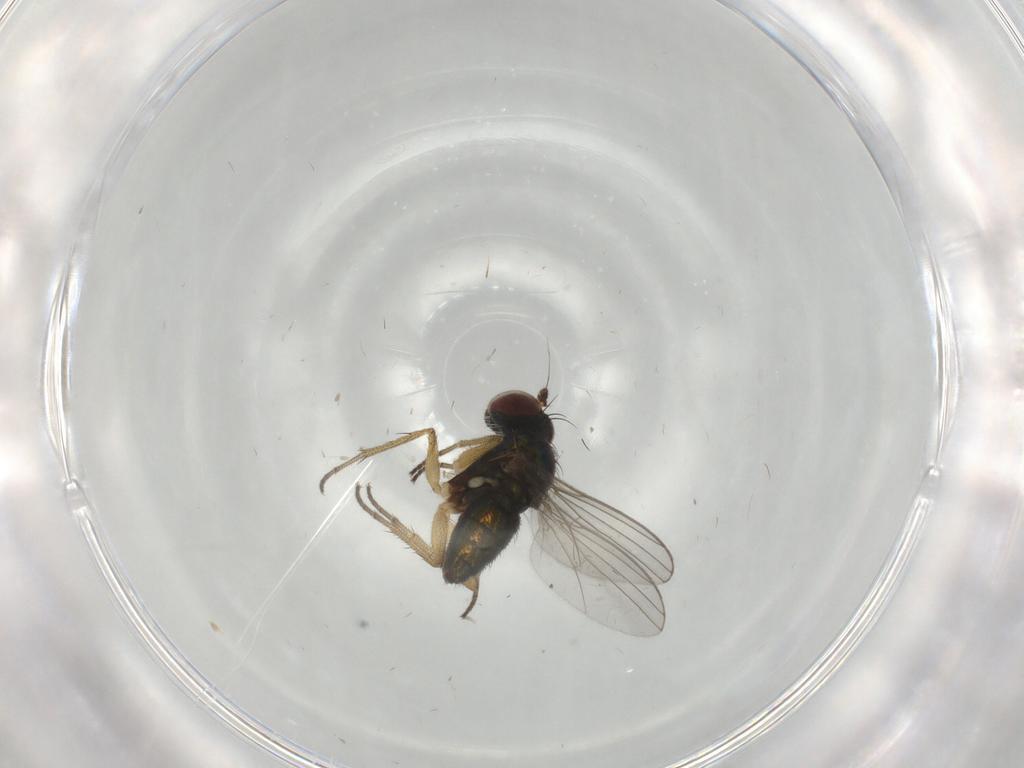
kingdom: Animalia
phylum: Arthropoda
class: Insecta
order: Diptera
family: Dolichopodidae
